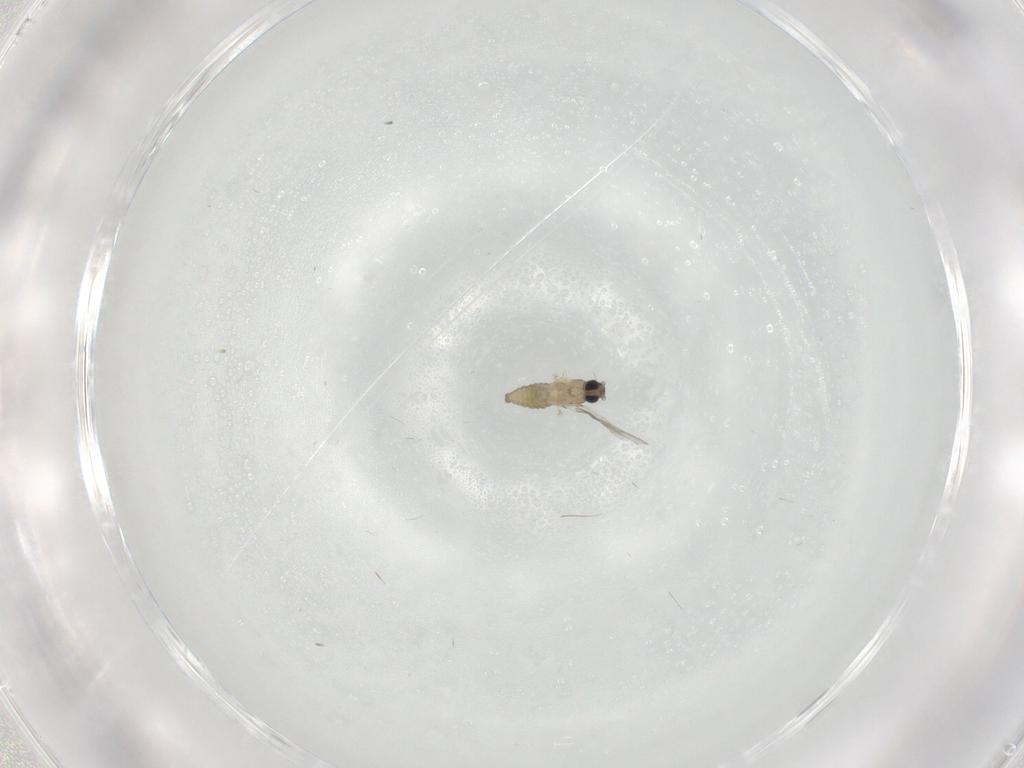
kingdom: Animalia
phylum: Arthropoda
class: Insecta
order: Diptera
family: Cecidomyiidae
